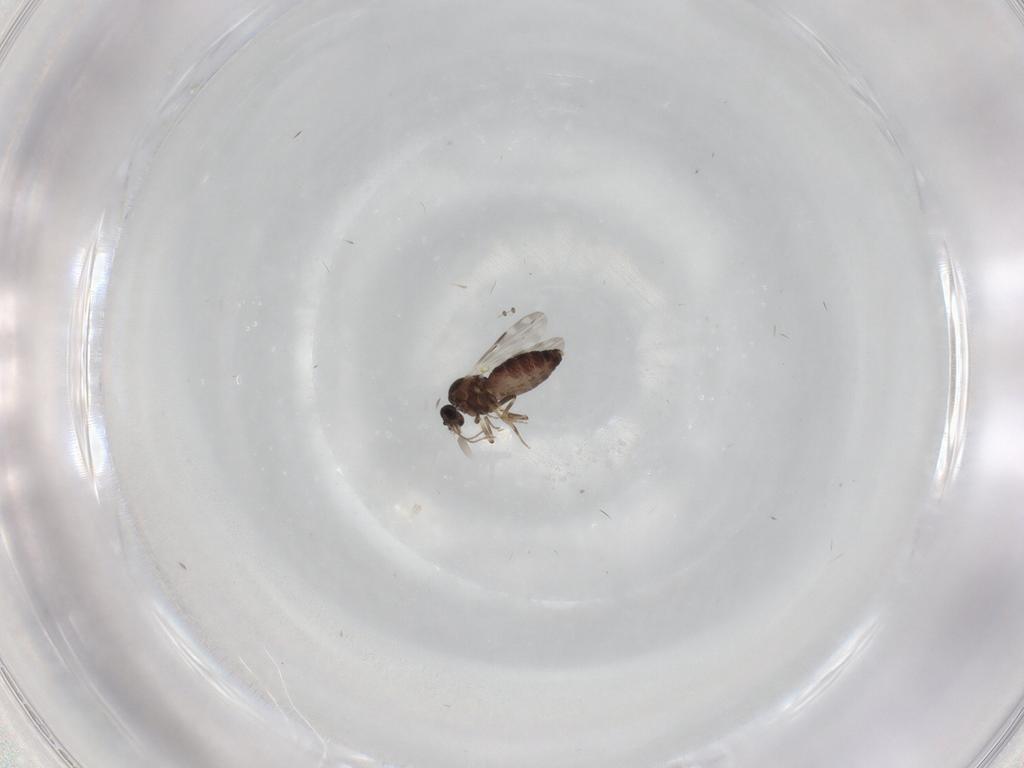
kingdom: Animalia
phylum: Arthropoda
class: Insecta
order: Diptera
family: Ceratopogonidae
